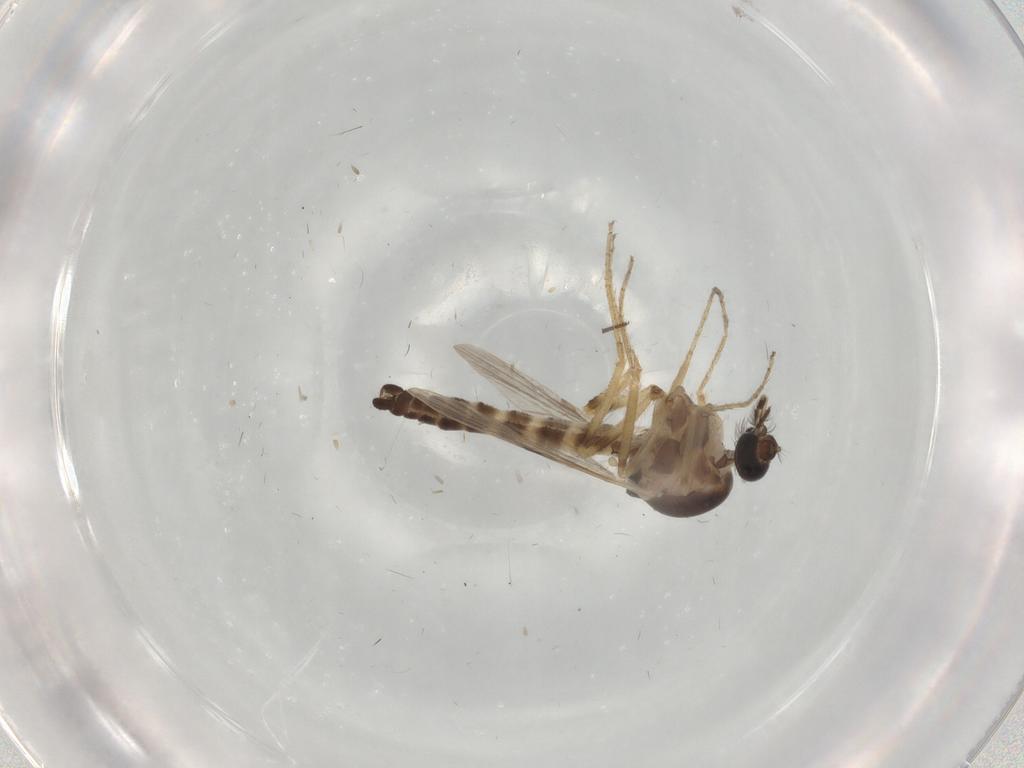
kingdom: Animalia
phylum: Arthropoda
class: Insecta
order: Diptera
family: Ceratopogonidae
